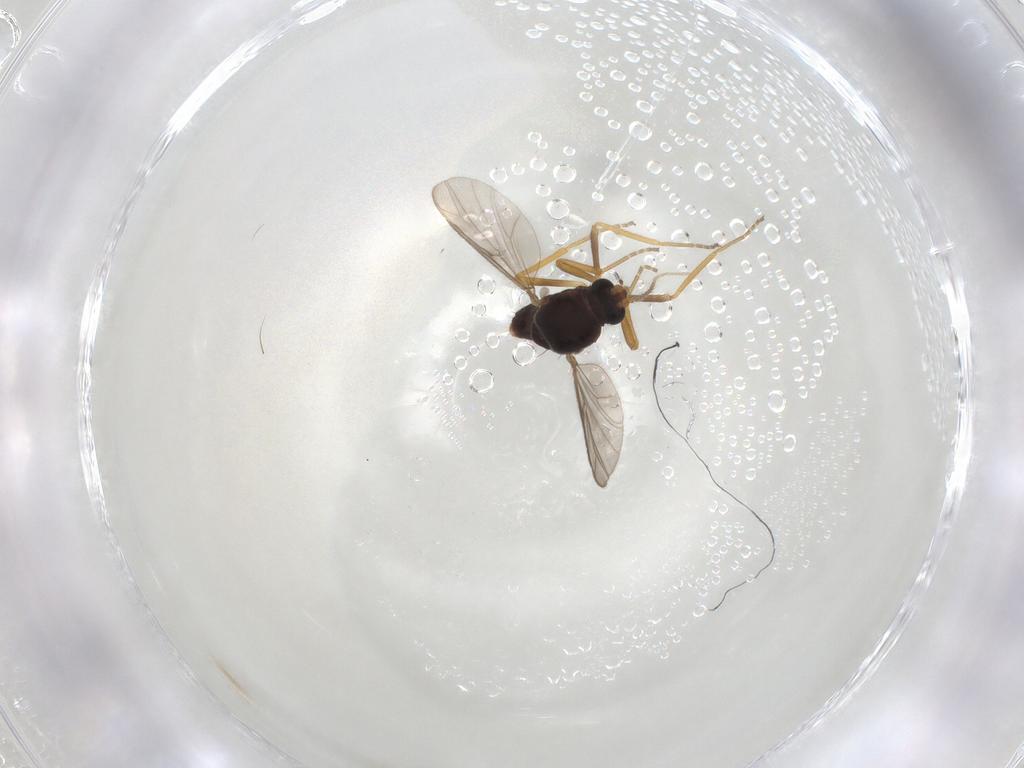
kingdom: Animalia
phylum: Arthropoda
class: Insecta
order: Diptera
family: Ceratopogonidae
